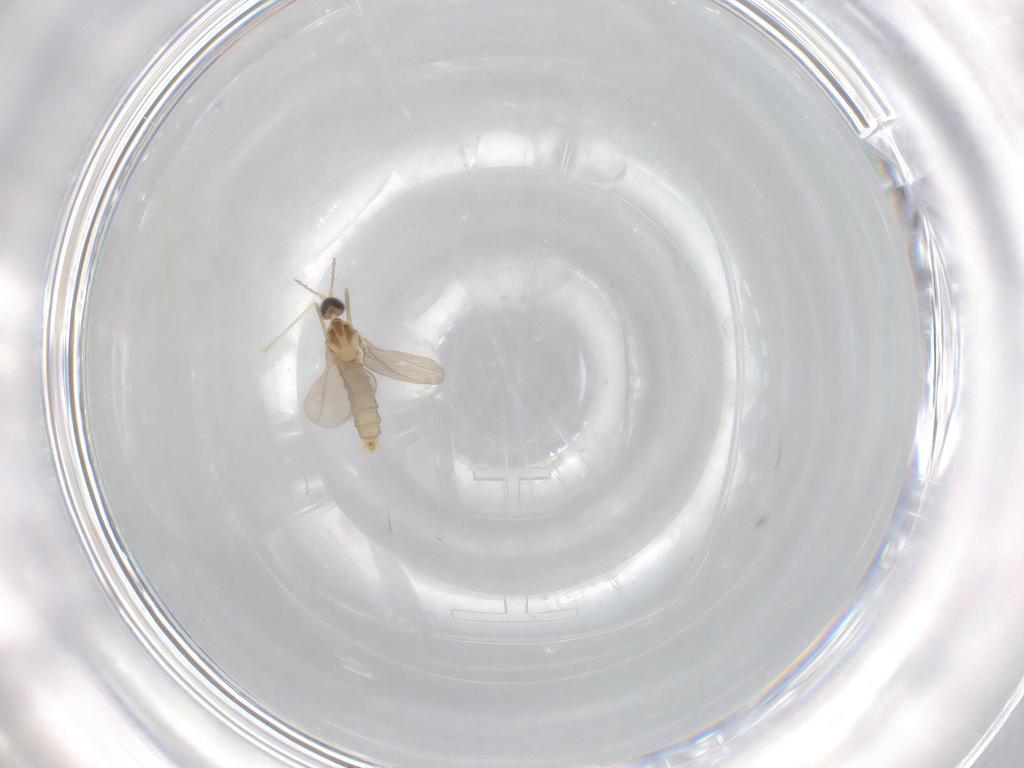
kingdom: Animalia
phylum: Arthropoda
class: Insecta
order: Diptera
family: Cecidomyiidae
